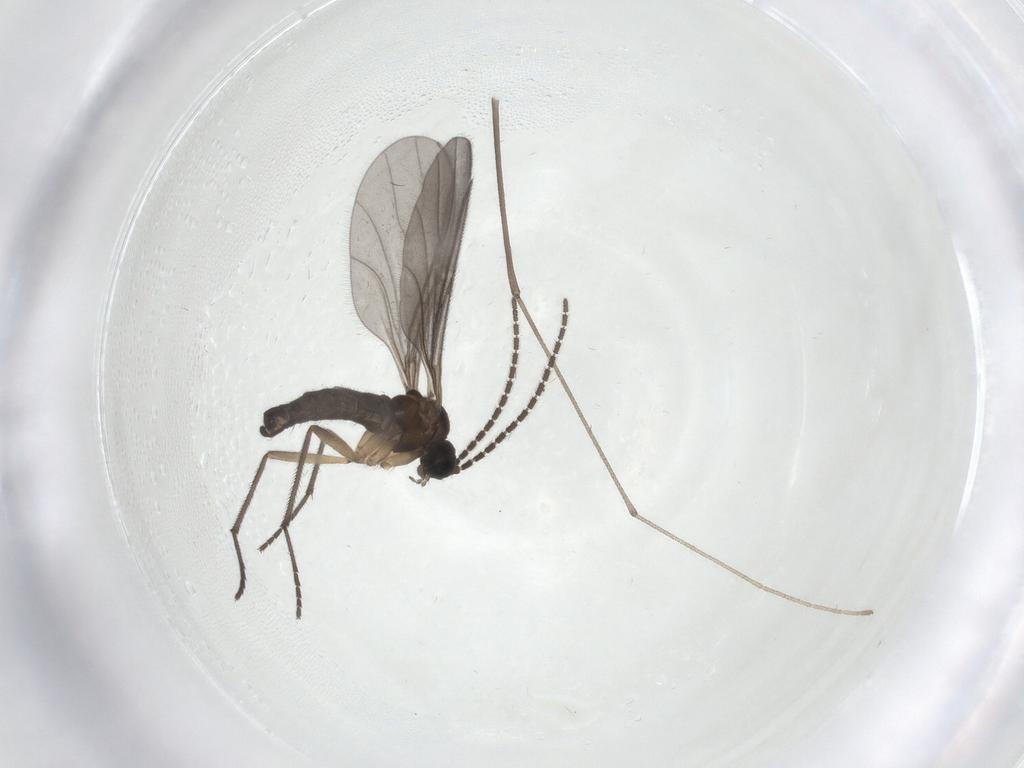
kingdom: Animalia
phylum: Arthropoda
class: Insecta
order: Diptera
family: Sciaridae
